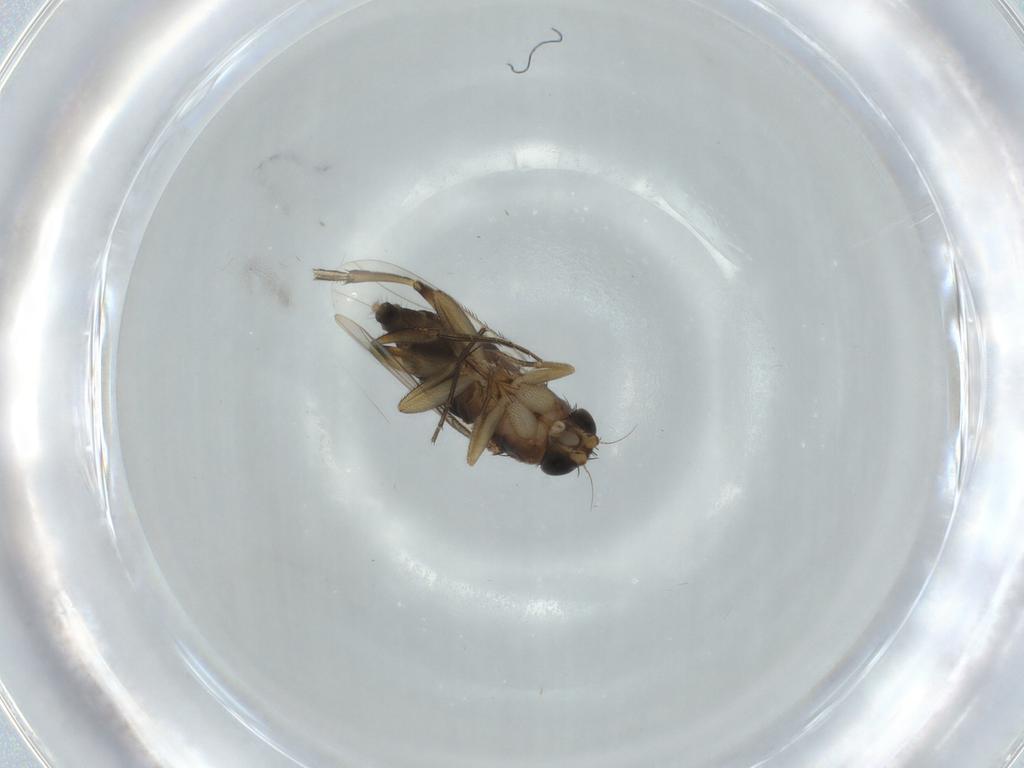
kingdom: Animalia
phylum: Arthropoda
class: Insecta
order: Diptera
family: Phoridae
